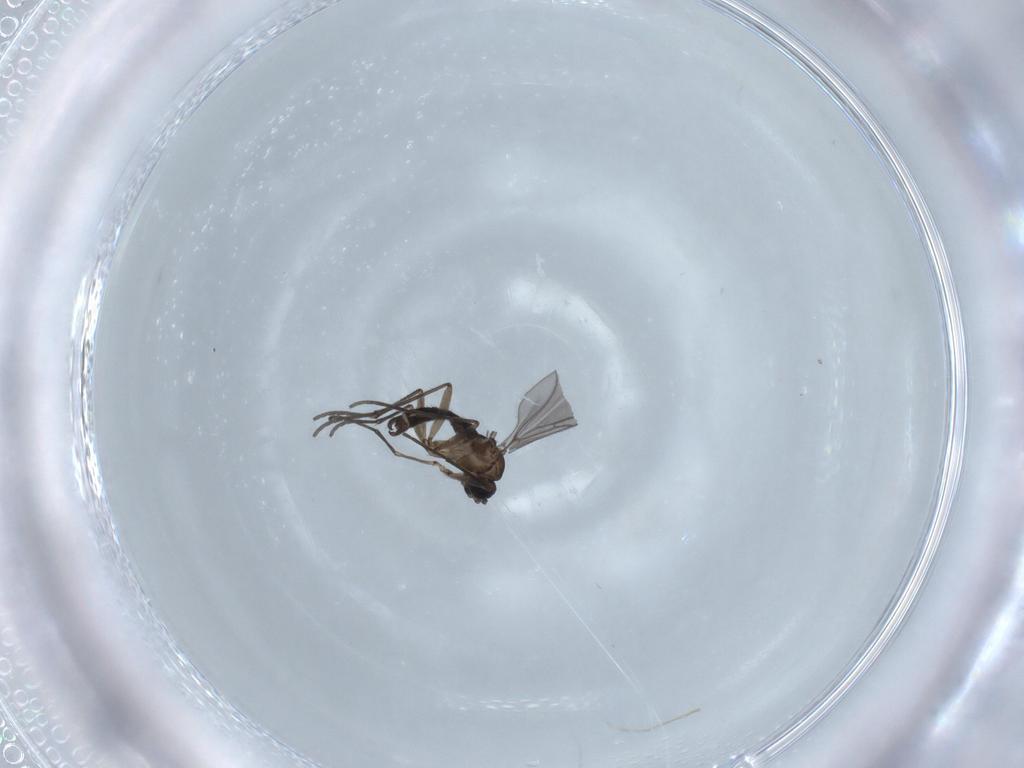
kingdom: Animalia
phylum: Arthropoda
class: Insecta
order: Diptera
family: Sciaridae
